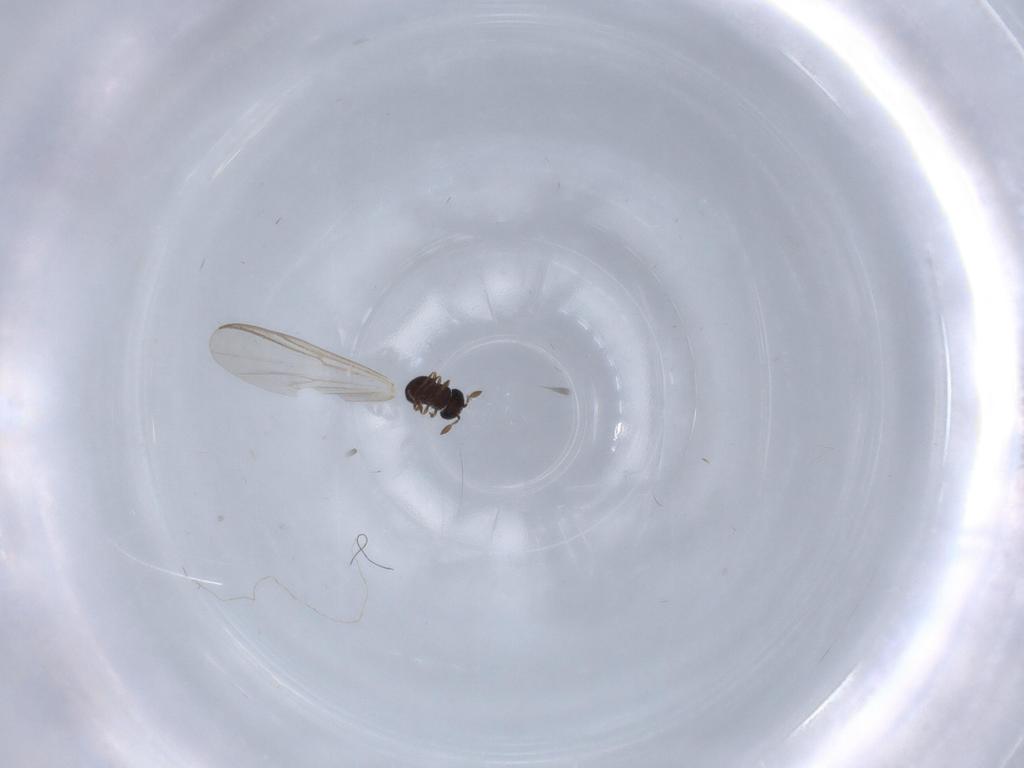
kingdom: Animalia
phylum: Arthropoda
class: Insecta
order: Hymenoptera
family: Scelionidae
